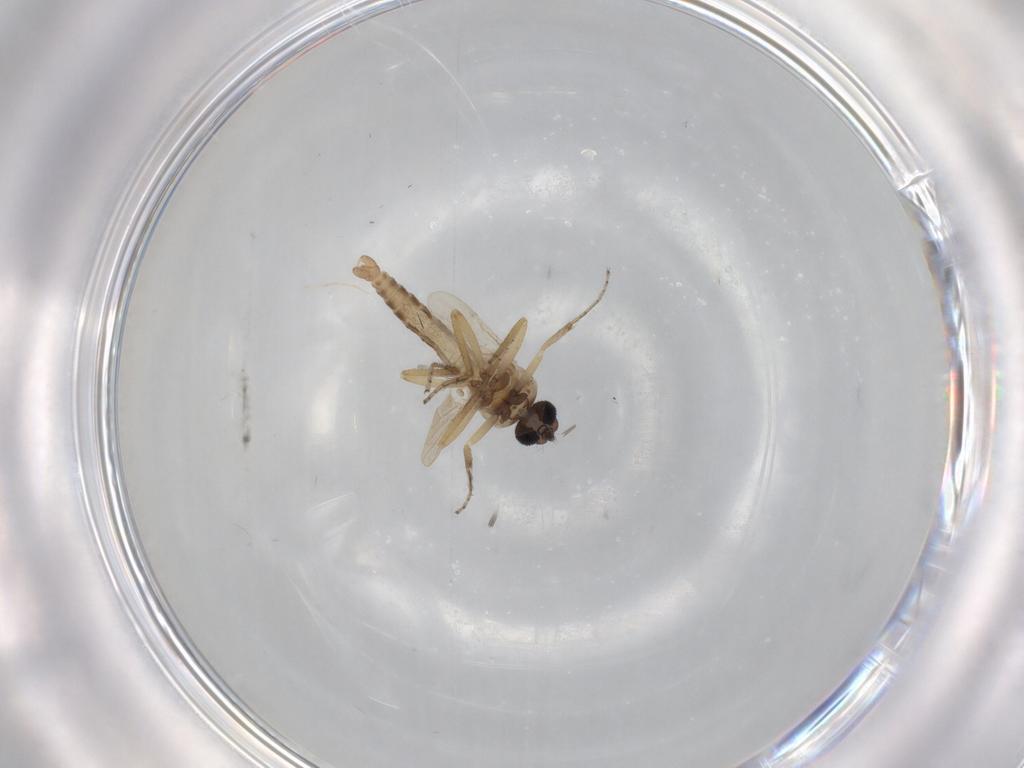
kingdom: Animalia
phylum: Arthropoda
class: Insecta
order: Diptera
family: Ceratopogonidae
